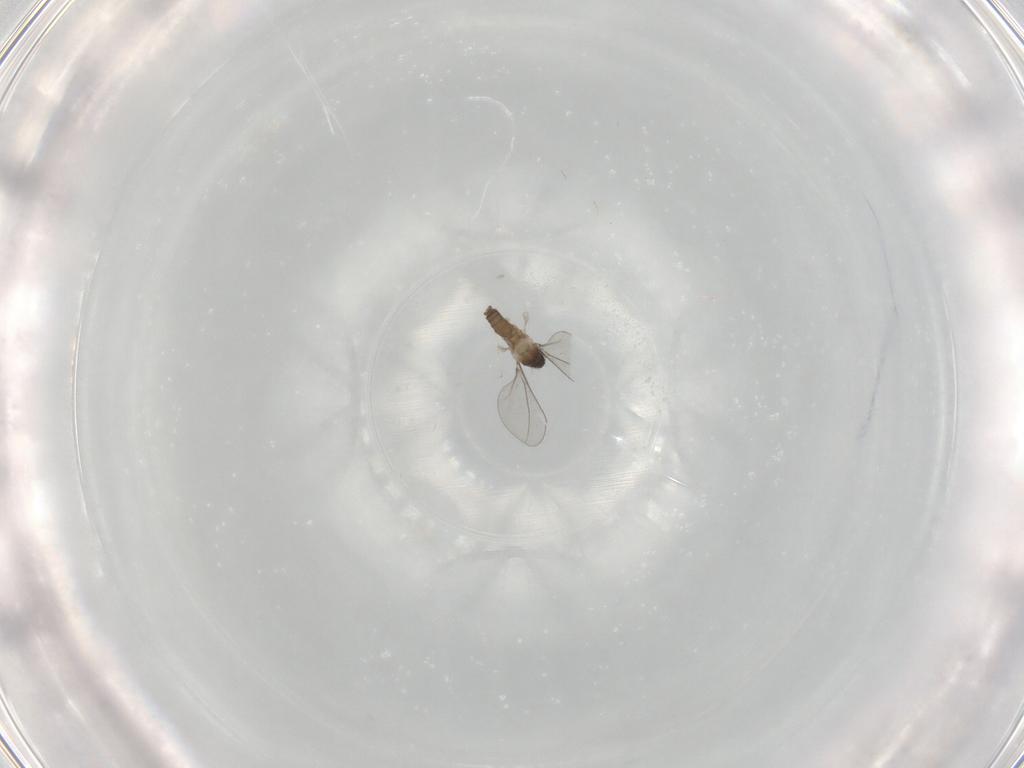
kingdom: Animalia
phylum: Arthropoda
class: Insecta
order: Diptera
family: Cecidomyiidae
